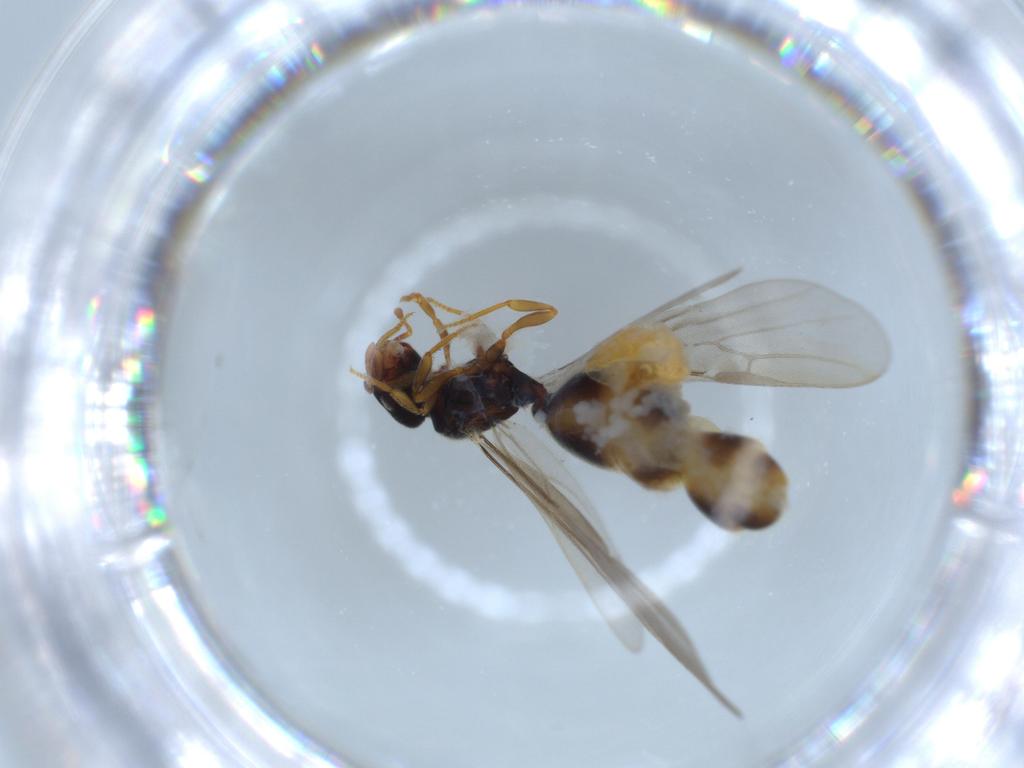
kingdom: Animalia
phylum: Arthropoda
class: Insecta
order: Hymenoptera
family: Formicidae
